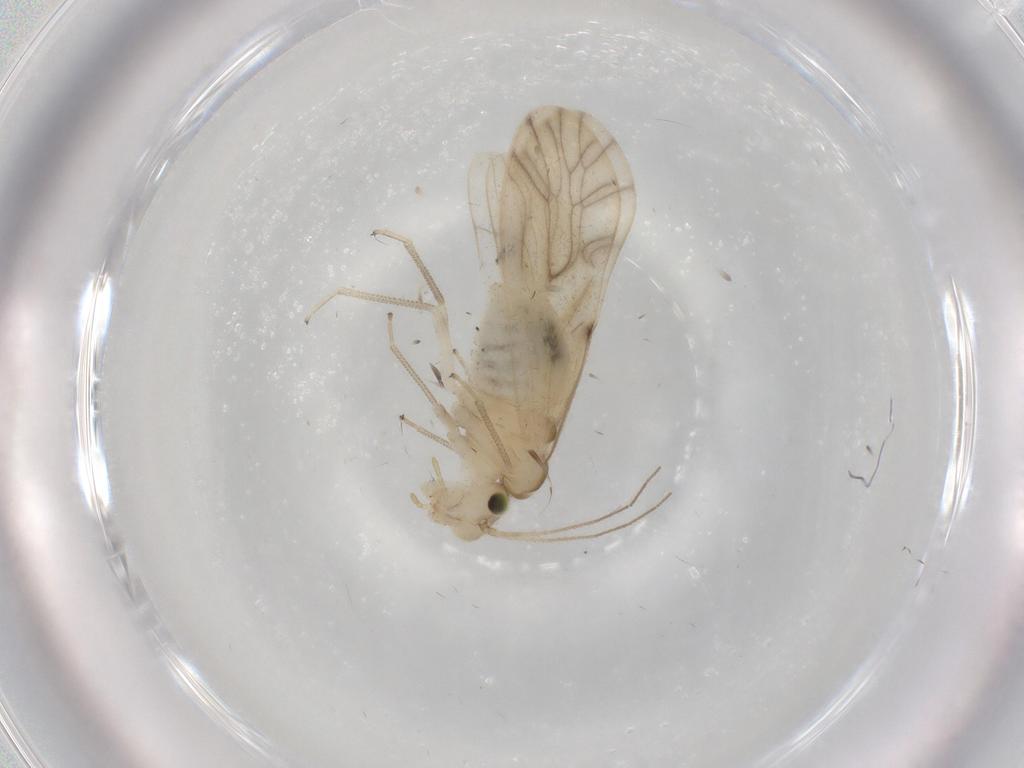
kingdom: Animalia
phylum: Arthropoda
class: Insecta
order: Psocodea
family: Caeciliusidae
